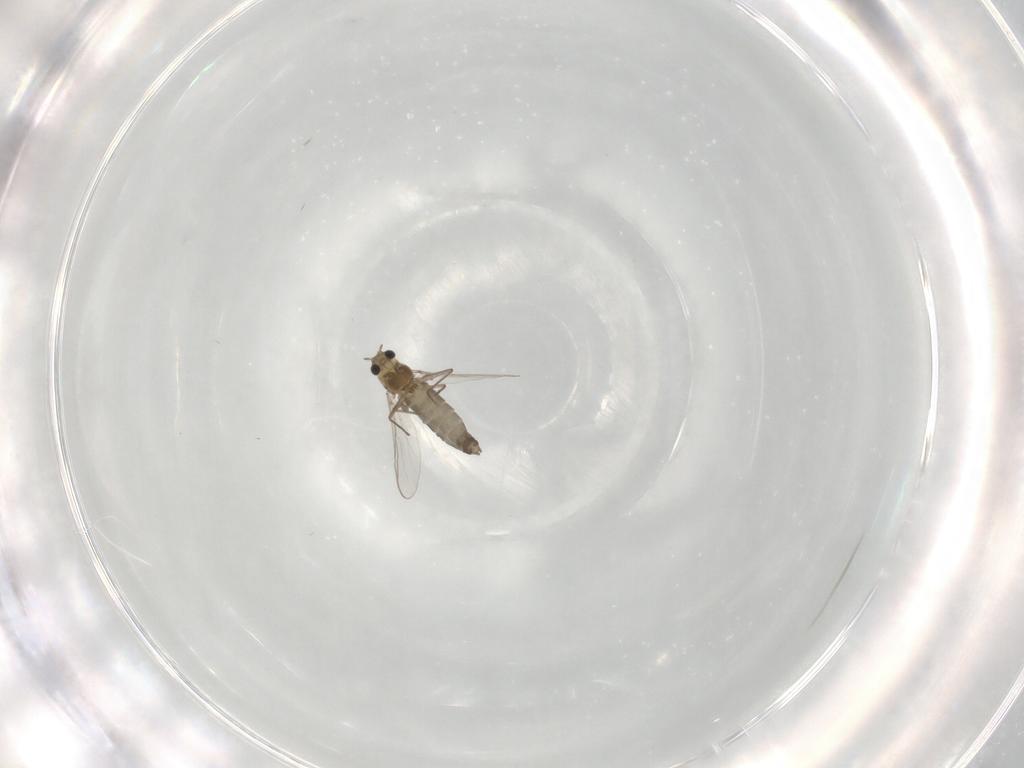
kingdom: Animalia
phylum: Arthropoda
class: Insecta
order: Diptera
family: Chironomidae
